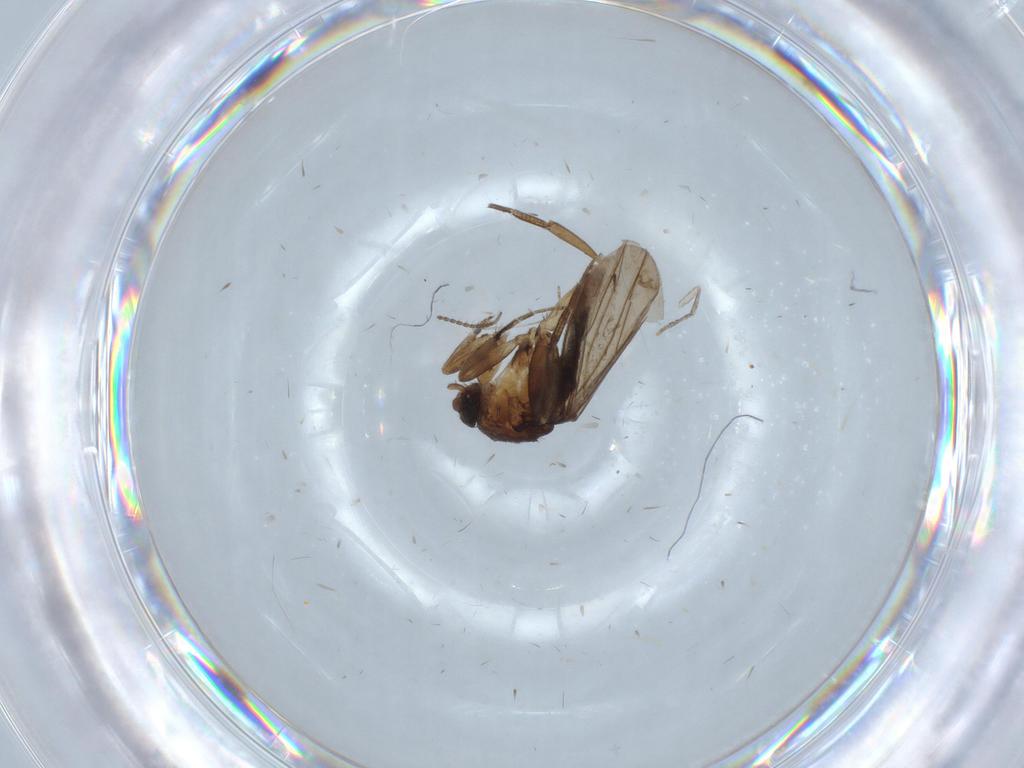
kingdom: Animalia
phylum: Arthropoda
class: Insecta
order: Diptera
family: Limoniidae
